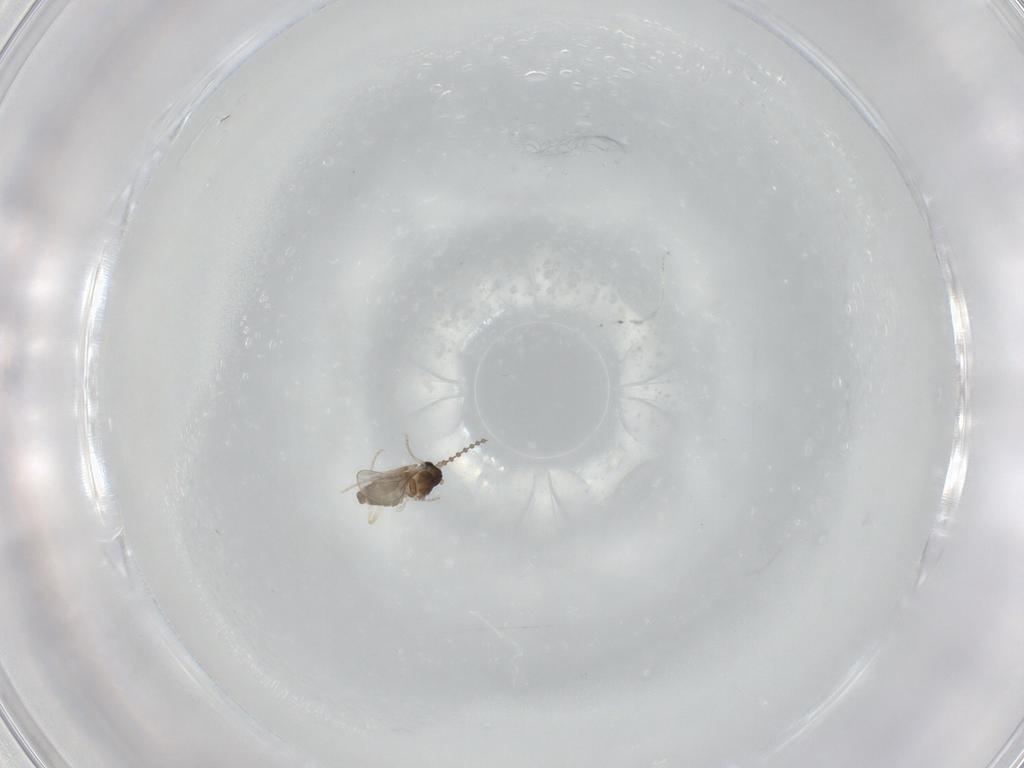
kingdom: Animalia
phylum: Arthropoda
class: Insecta
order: Diptera
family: Cecidomyiidae
